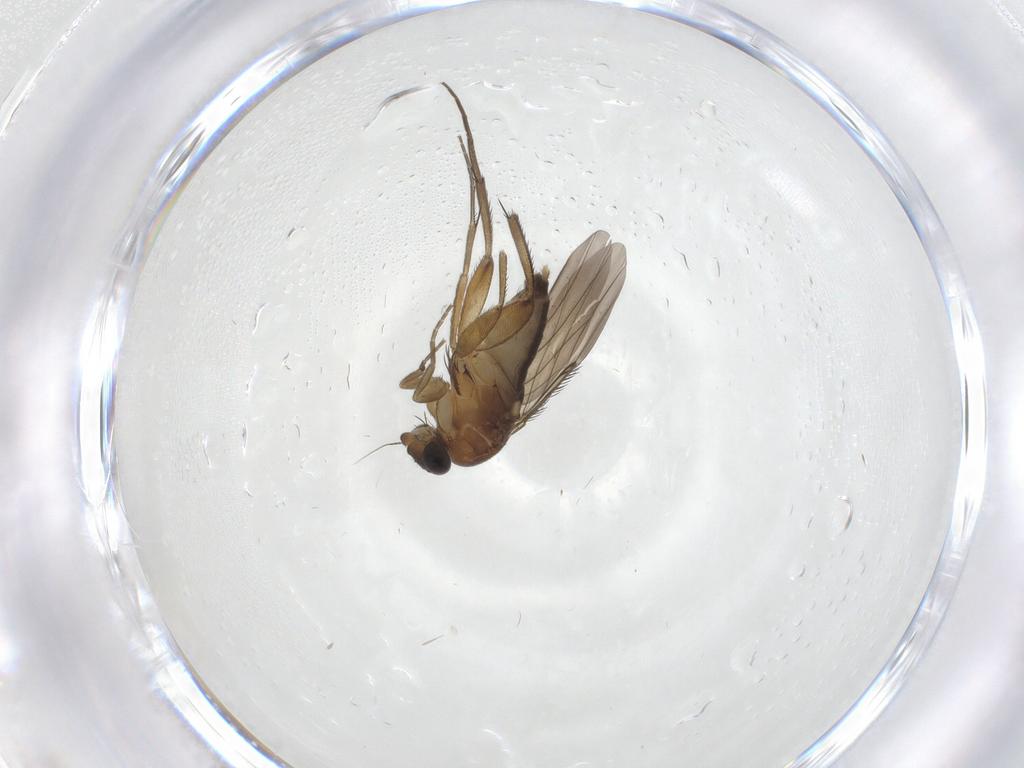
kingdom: Animalia
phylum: Arthropoda
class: Insecta
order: Diptera
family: Phoridae
